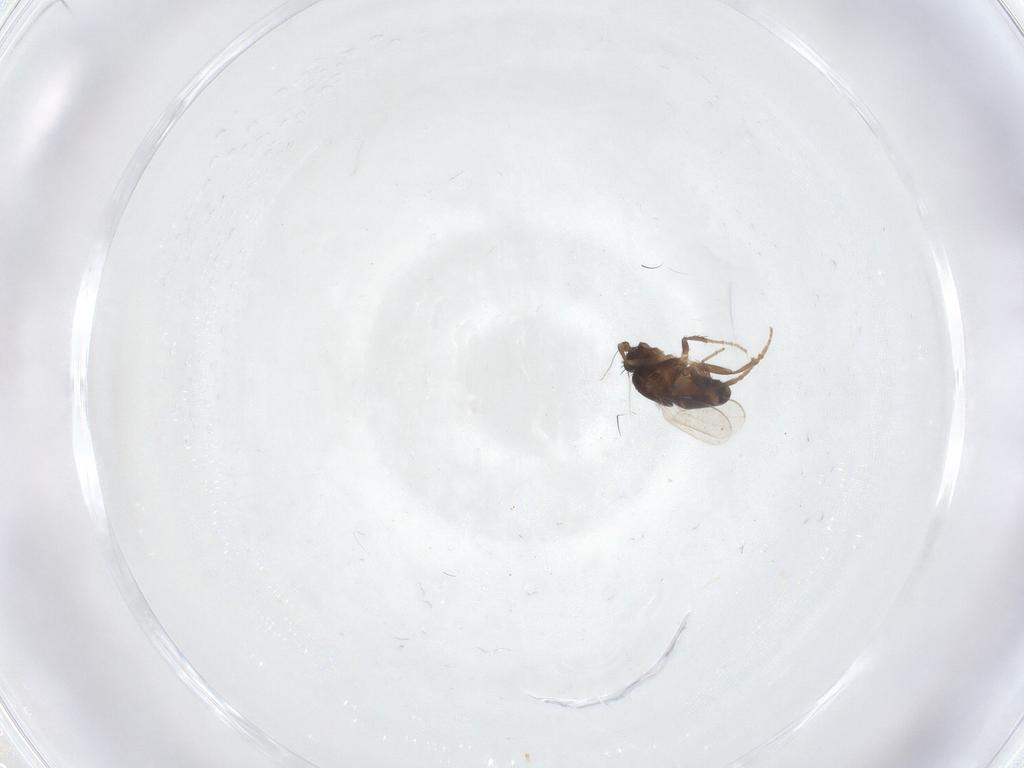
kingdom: Animalia
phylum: Arthropoda
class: Insecta
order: Diptera
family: Sphaeroceridae
